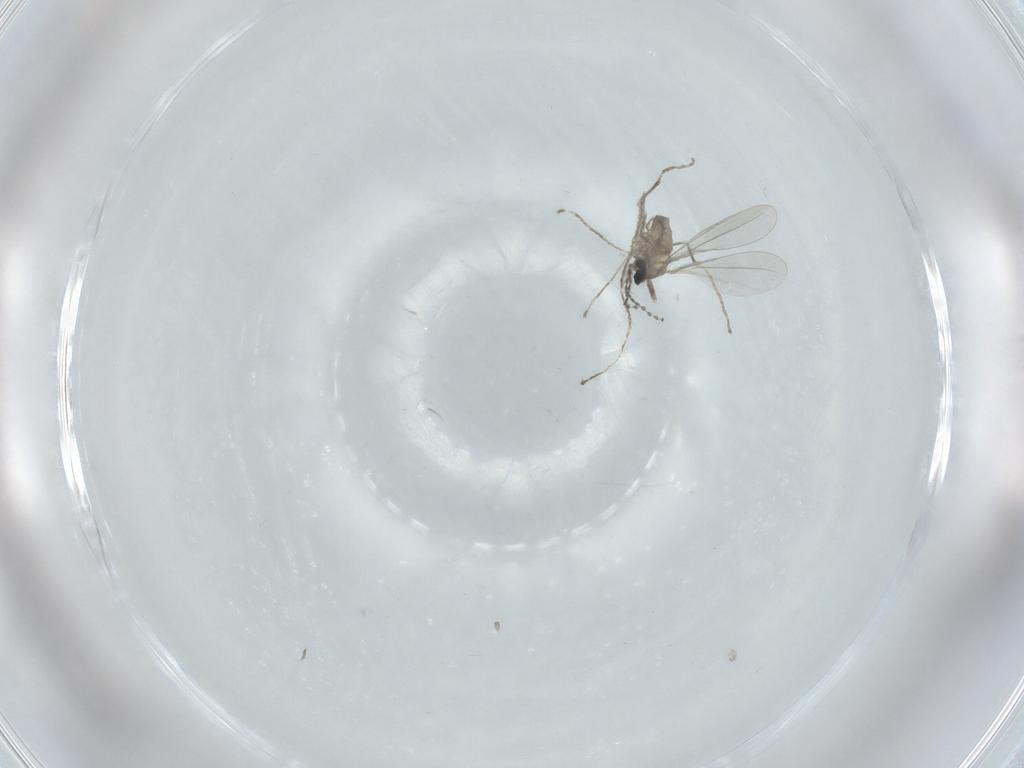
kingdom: Animalia
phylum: Arthropoda
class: Insecta
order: Diptera
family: Cecidomyiidae
